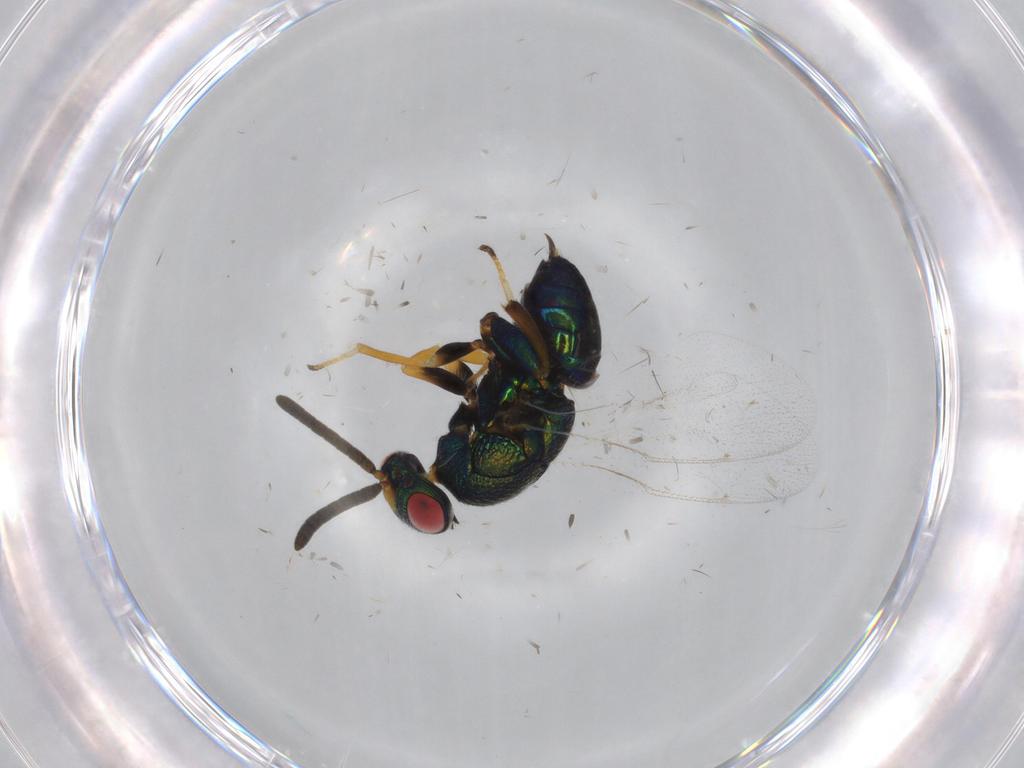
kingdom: Animalia
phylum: Arthropoda
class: Insecta
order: Hymenoptera
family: Torymidae
